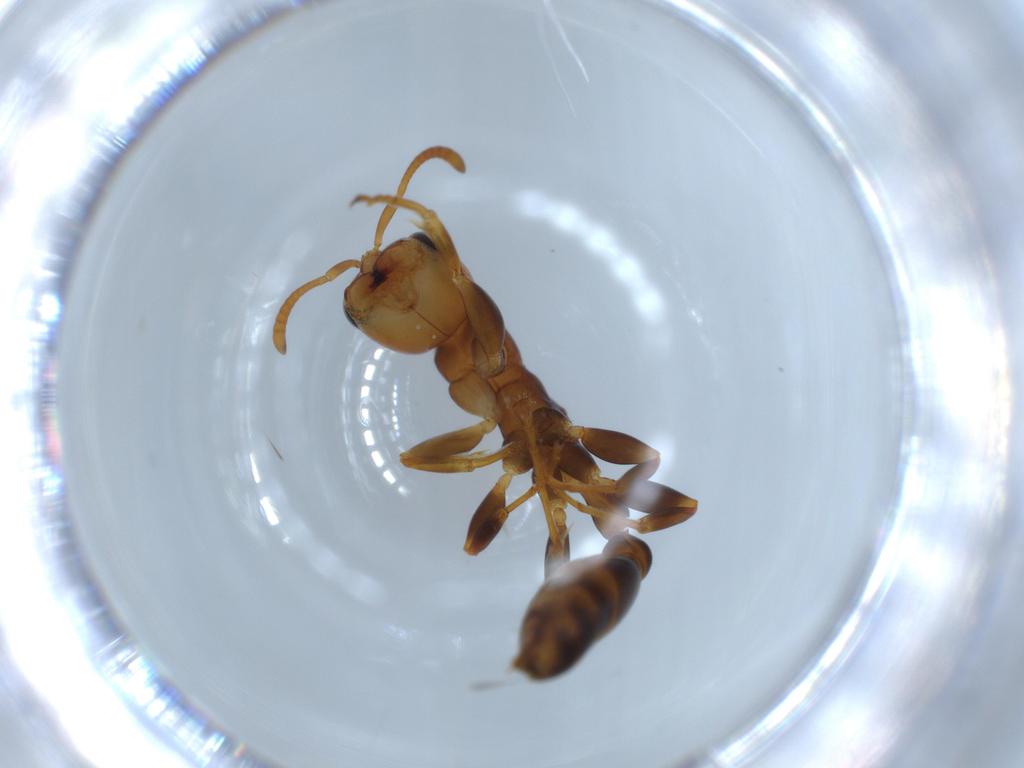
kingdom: Animalia
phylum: Arthropoda
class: Insecta
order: Hymenoptera
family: Formicidae
